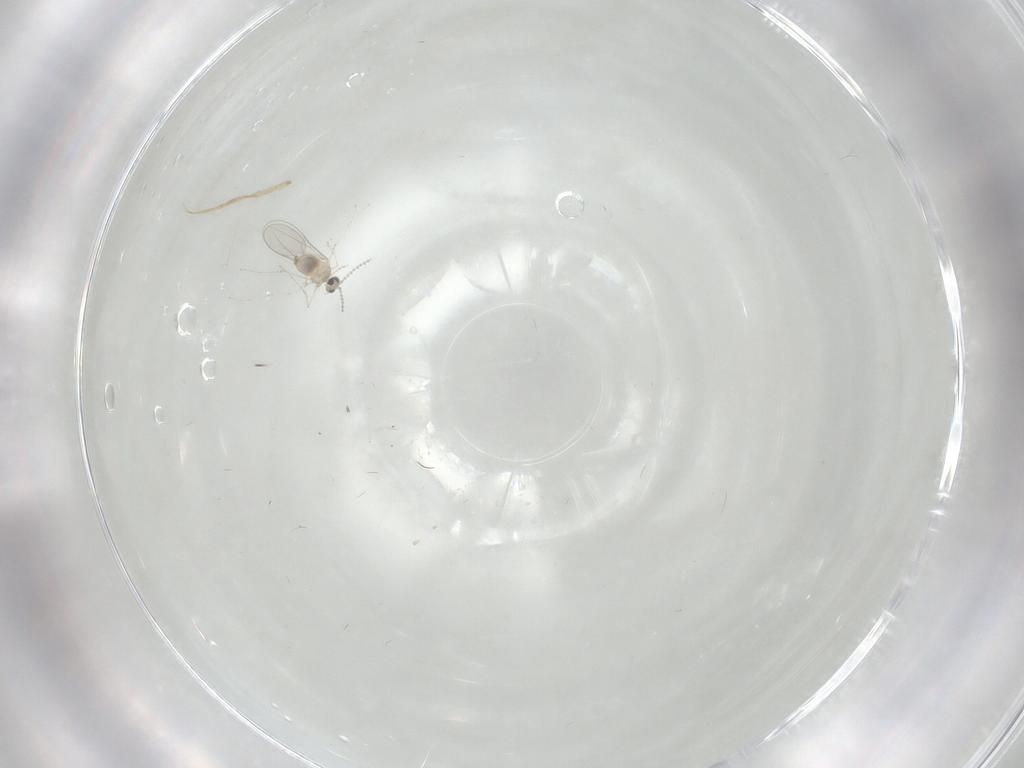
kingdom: Animalia
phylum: Arthropoda
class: Insecta
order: Diptera
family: Cecidomyiidae
